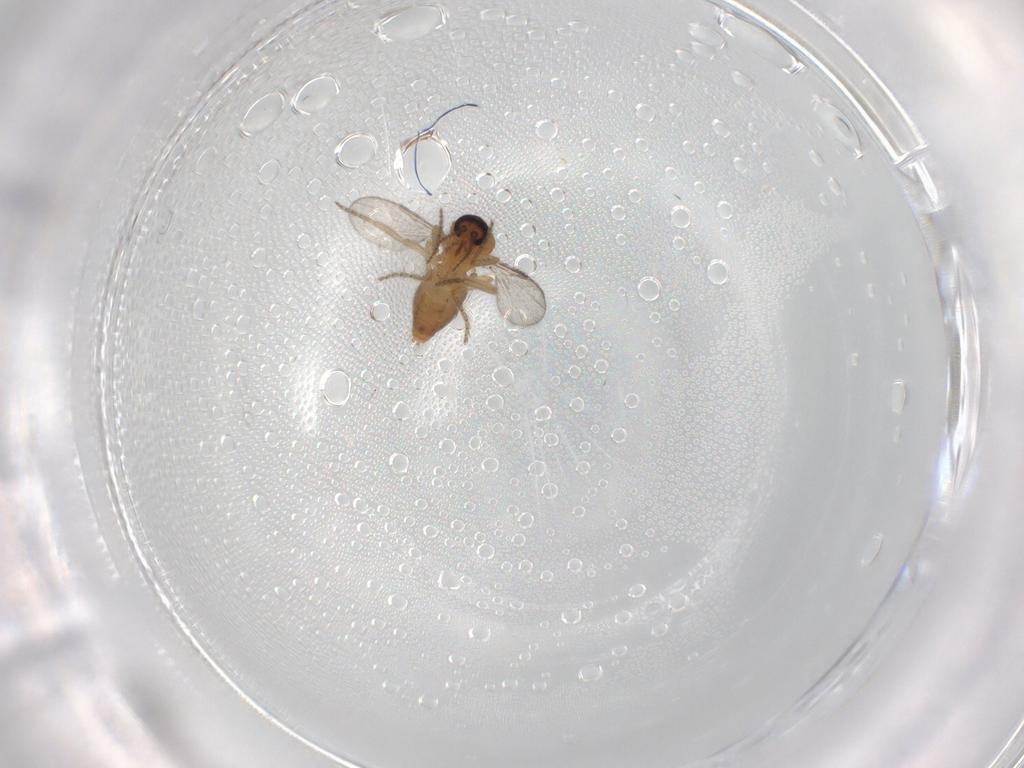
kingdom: Animalia
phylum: Arthropoda
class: Insecta
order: Diptera
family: Ceratopogonidae
